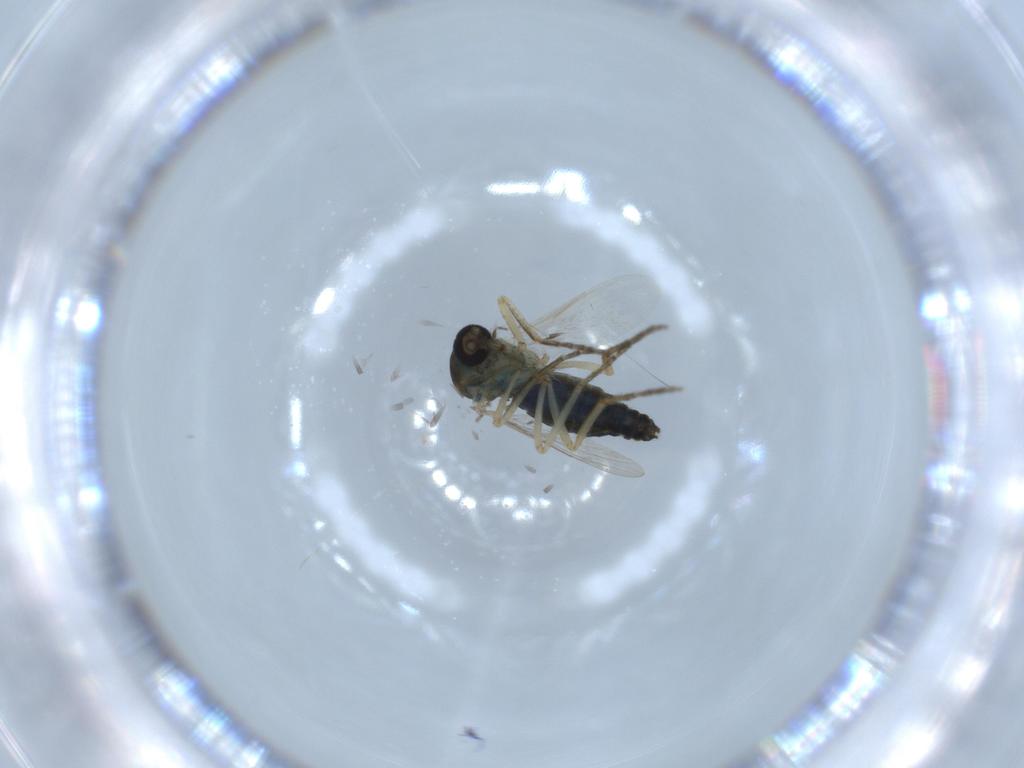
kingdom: Animalia
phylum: Arthropoda
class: Insecta
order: Diptera
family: Ceratopogonidae
